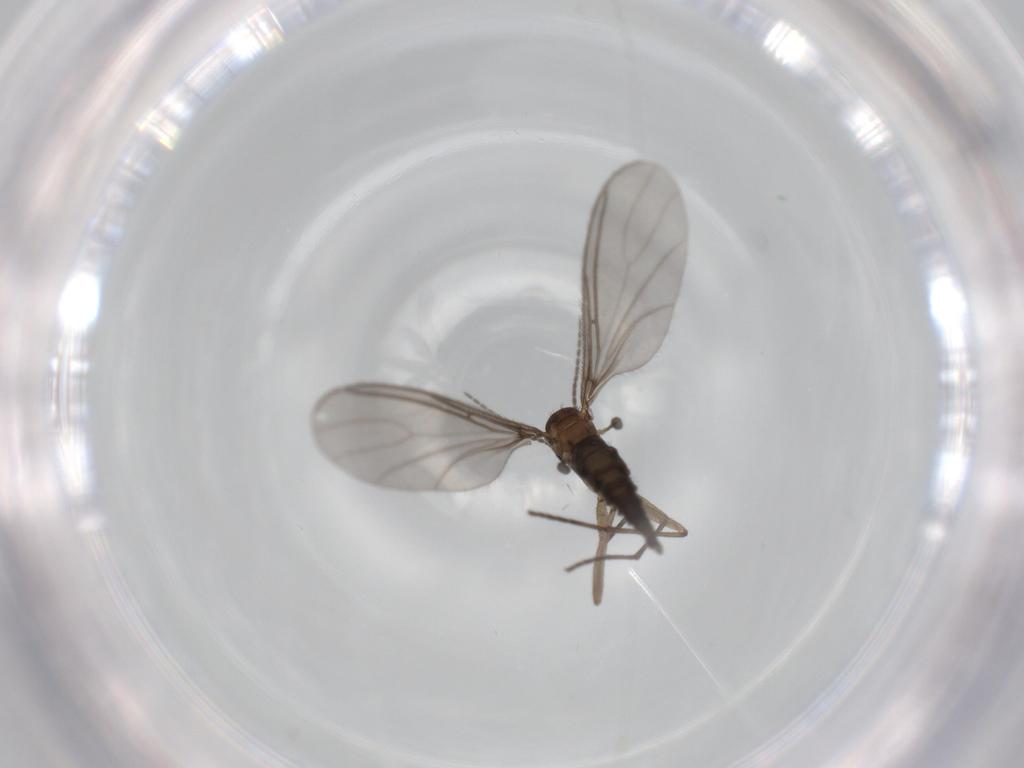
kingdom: Animalia
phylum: Arthropoda
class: Insecta
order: Diptera
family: Sciaridae
